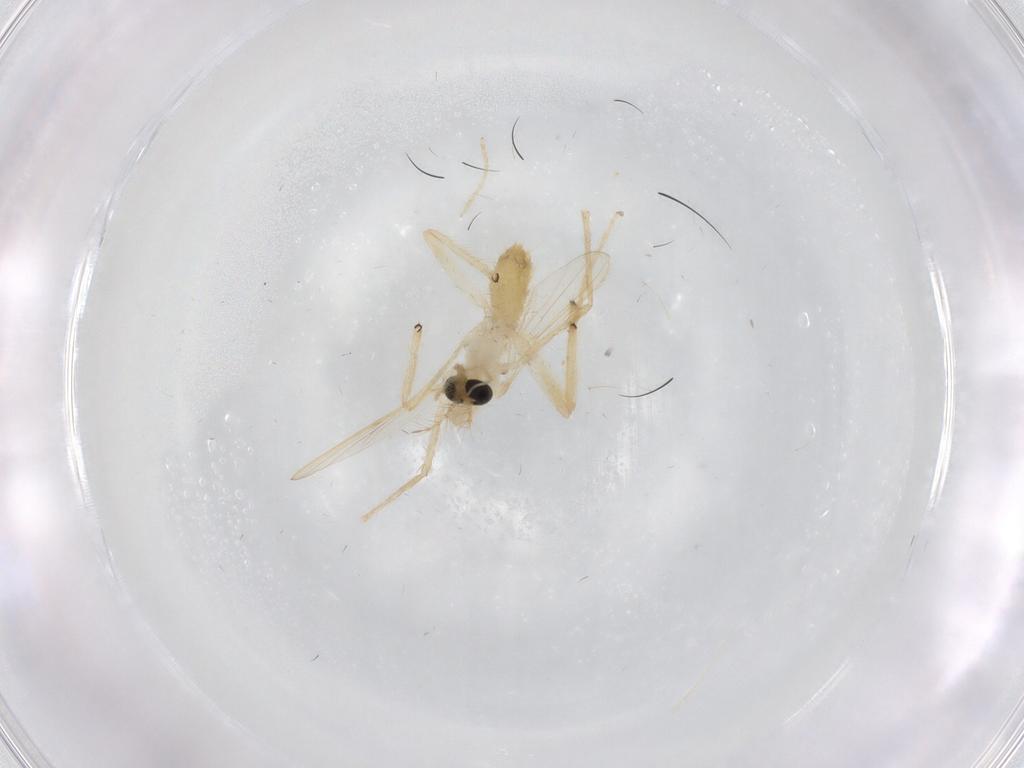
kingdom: Animalia
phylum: Arthropoda
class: Insecta
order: Diptera
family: Chironomidae
